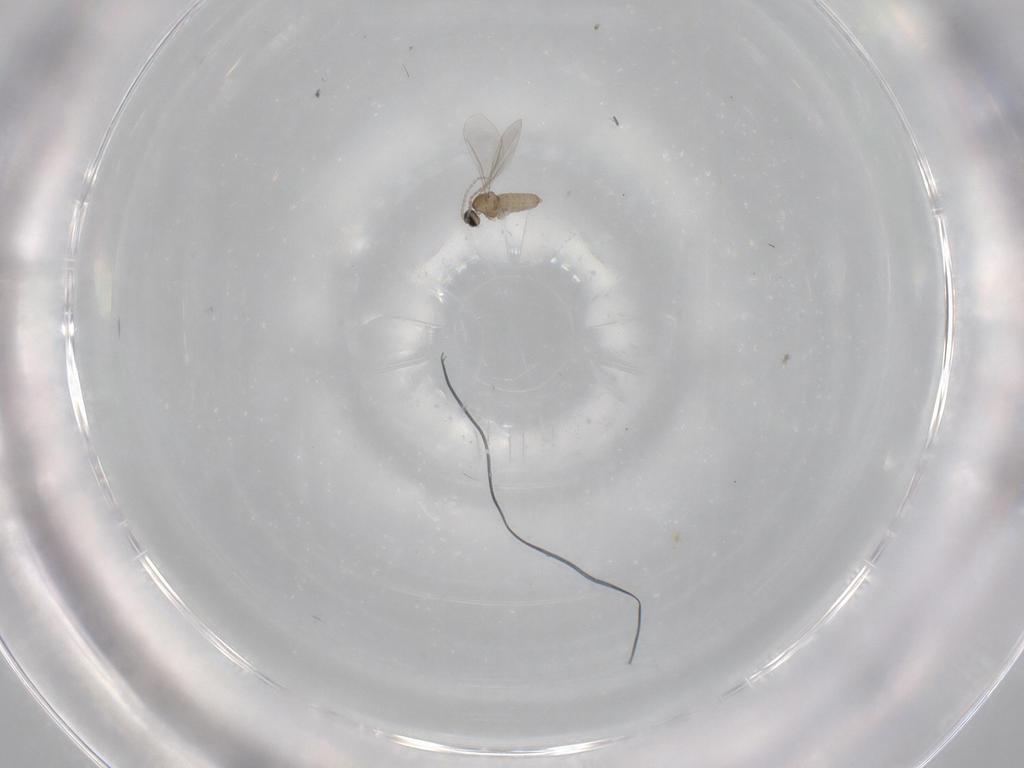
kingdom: Animalia
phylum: Arthropoda
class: Insecta
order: Diptera
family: Cecidomyiidae
